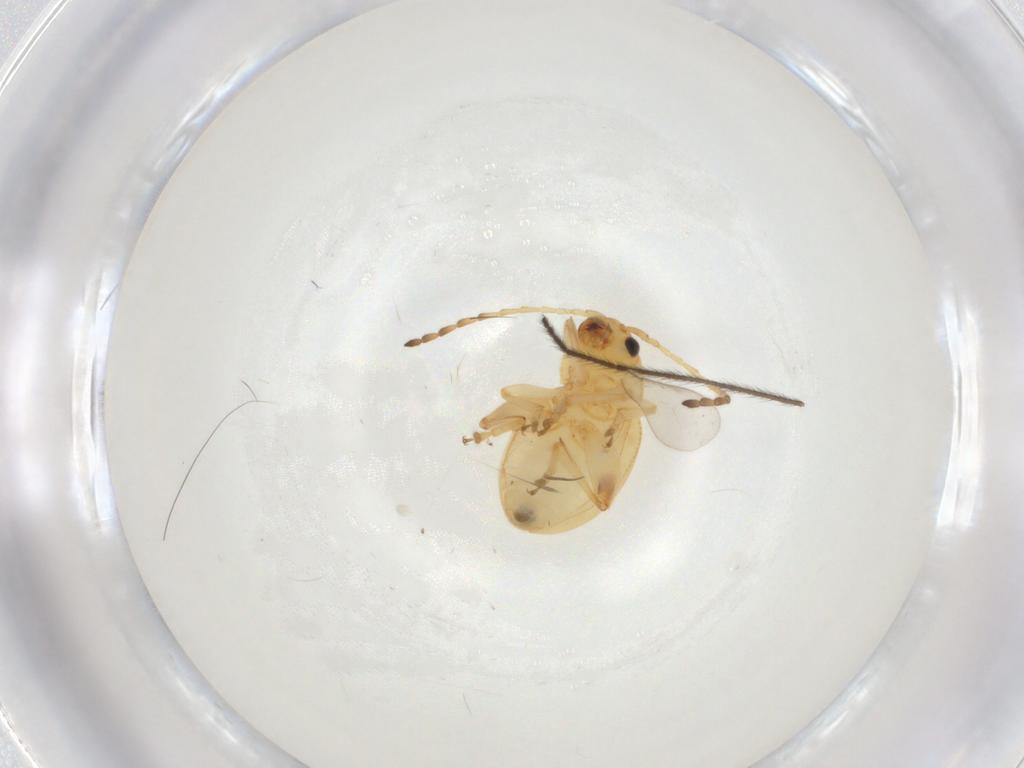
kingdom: Animalia
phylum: Arthropoda
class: Insecta
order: Coleoptera
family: Chrysomelidae
